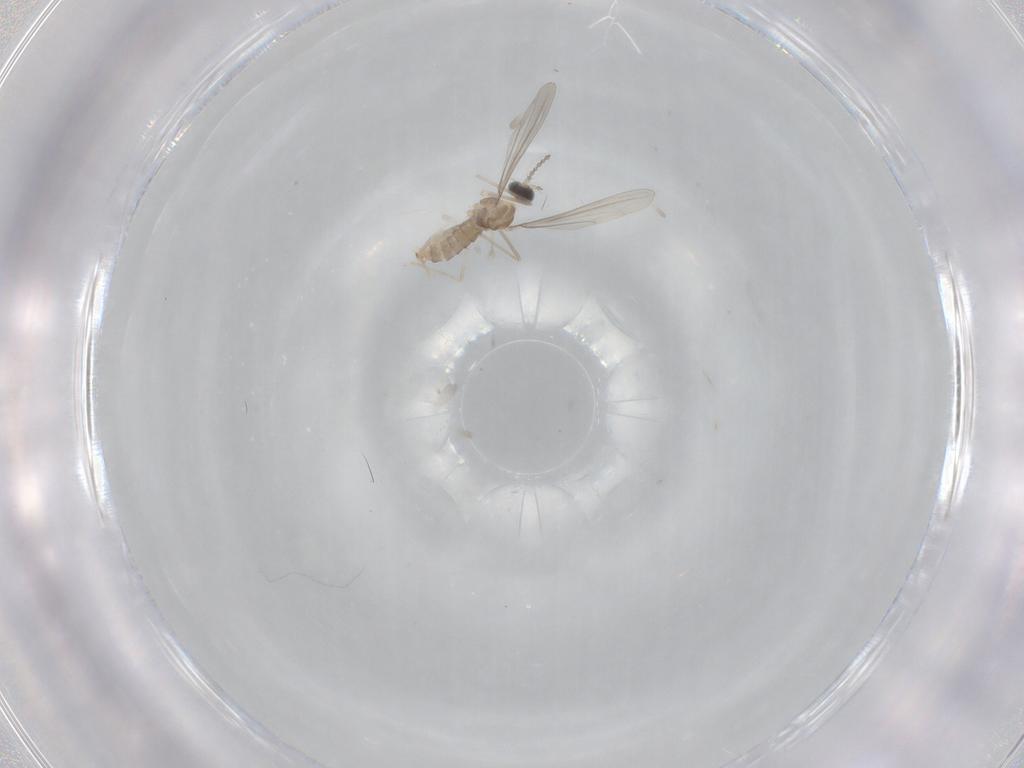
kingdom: Animalia
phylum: Arthropoda
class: Insecta
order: Diptera
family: Cecidomyiidae
